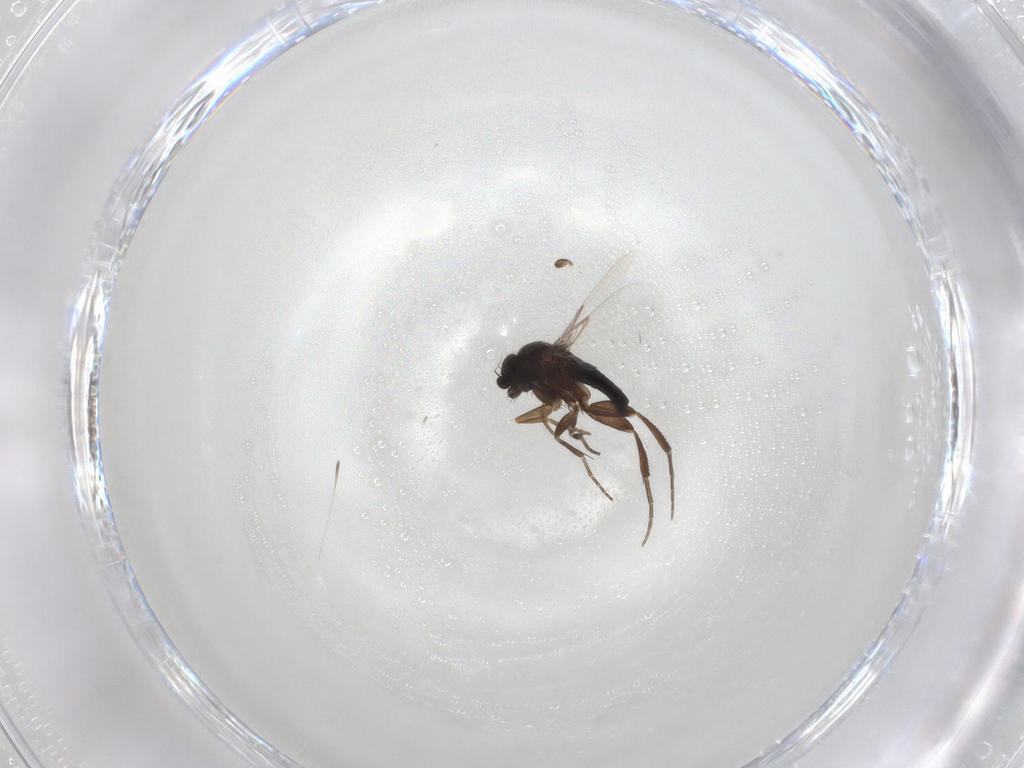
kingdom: Animalia
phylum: Arthropoda
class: Insecta
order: Diptera
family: Phoridae
